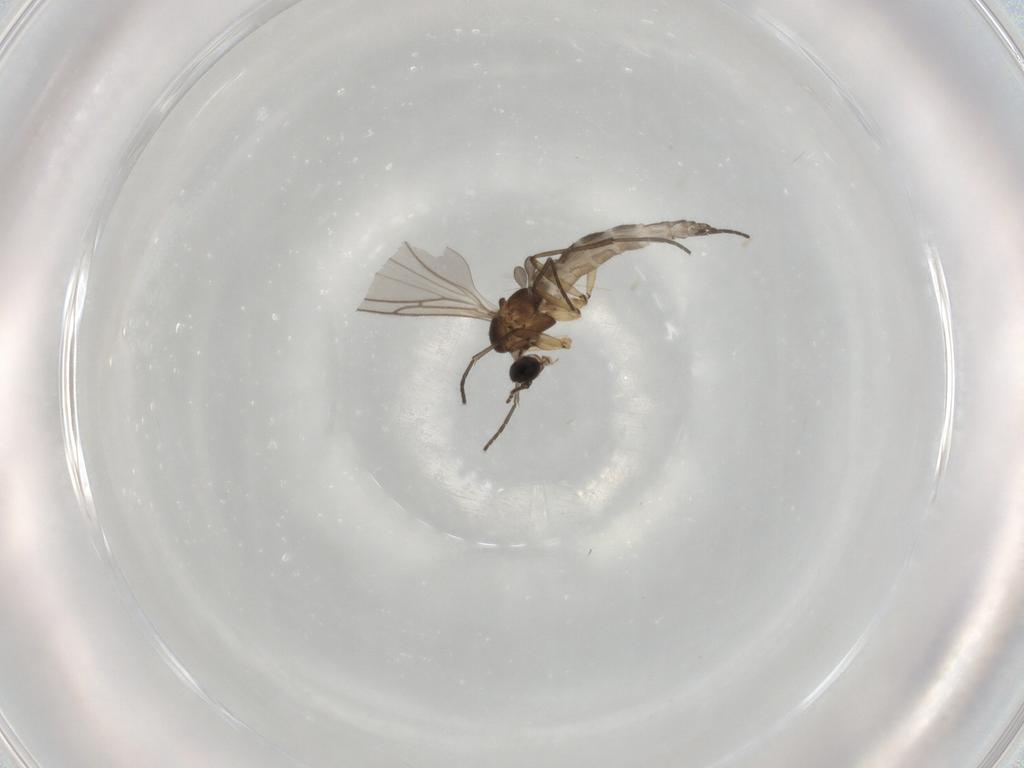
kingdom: Animalia
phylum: Arthropoda
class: Insecta
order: Diptera
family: Sciaridae
